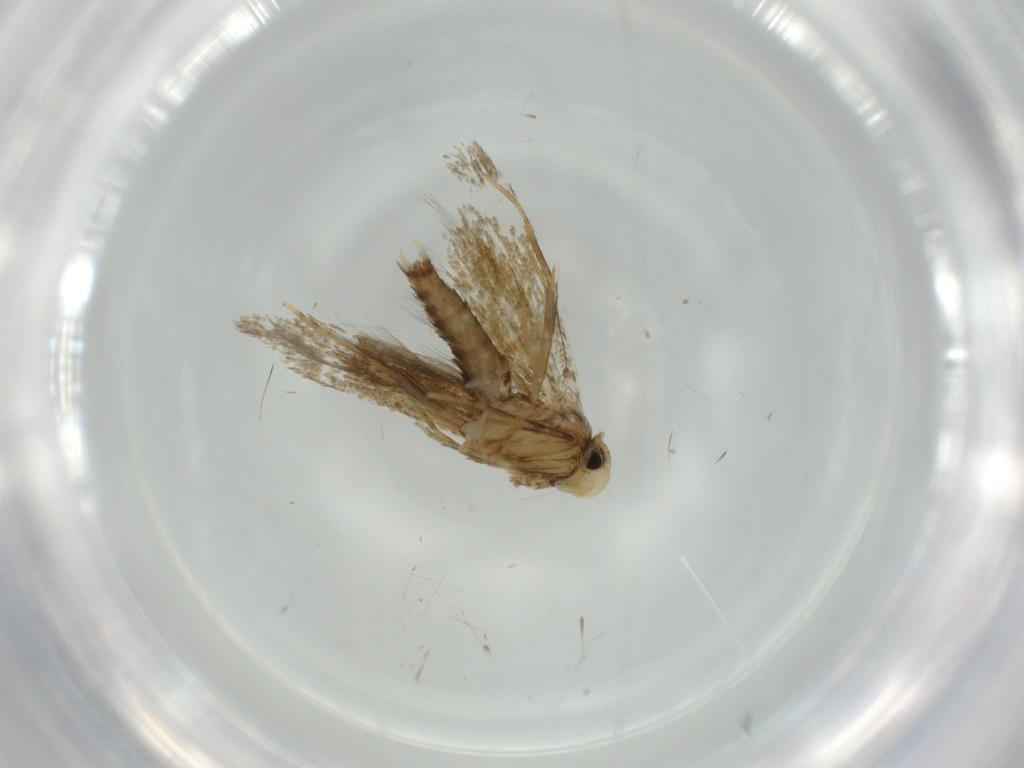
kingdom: Animalia
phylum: Arthropoda
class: Insecta
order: Lepidoptera
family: Tineidae
